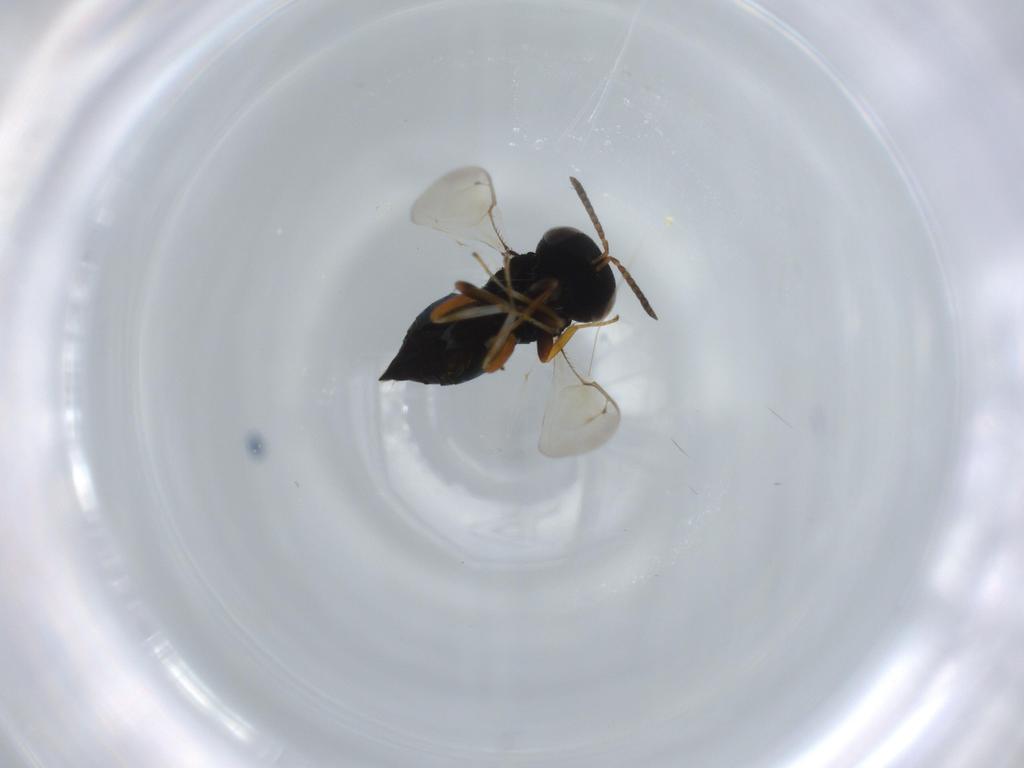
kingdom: Animalia
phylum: Arthropoda
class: Insecta
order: Hymenoptera
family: Pteromalidae
